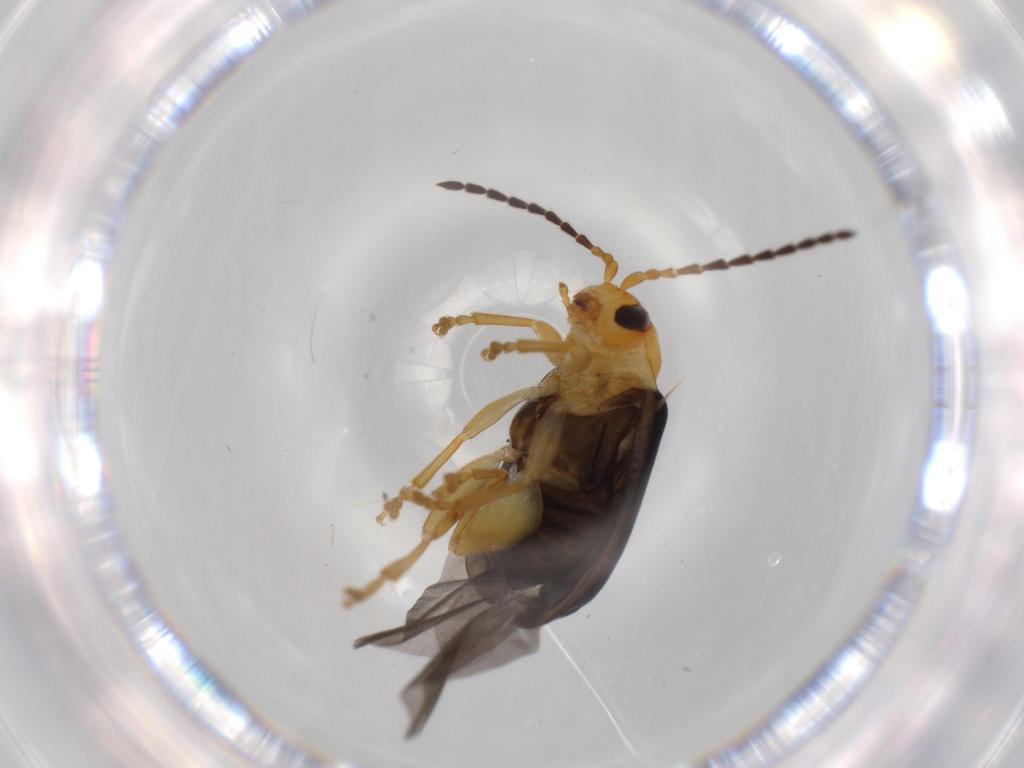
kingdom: Animalia
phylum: Arthropoda
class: Insecta
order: Coleoptera
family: Chrysomelidae
